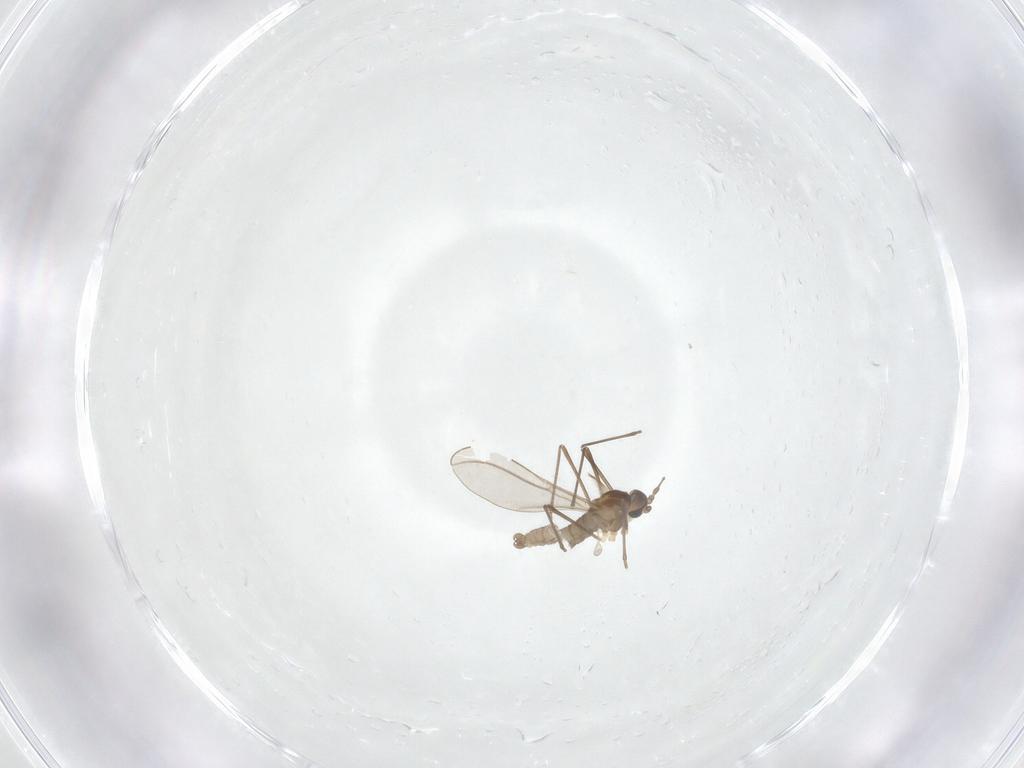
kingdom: Animalia
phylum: Arthropoda
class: Insecta
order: Diptera
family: Cecidomyiidae
